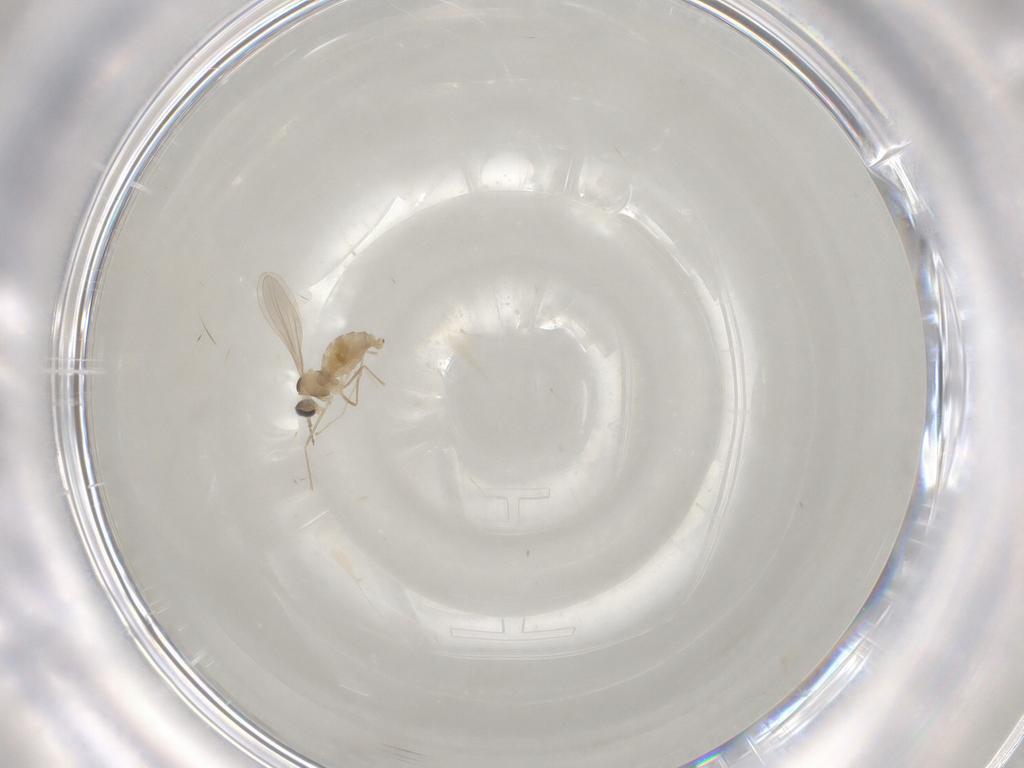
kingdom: Animalia
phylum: Arthropoda
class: Insecta
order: Diptera
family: Cecidomyiidae
